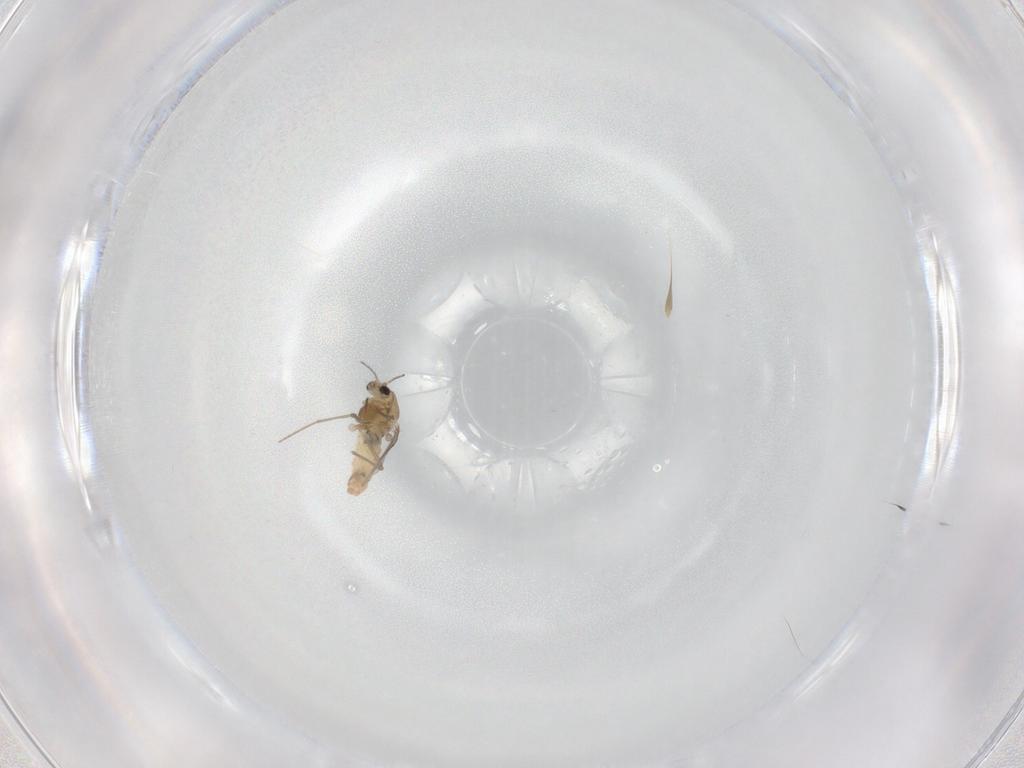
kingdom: Animalia
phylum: Arthropoda
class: Insecta
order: Diptera
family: Chironomidae
